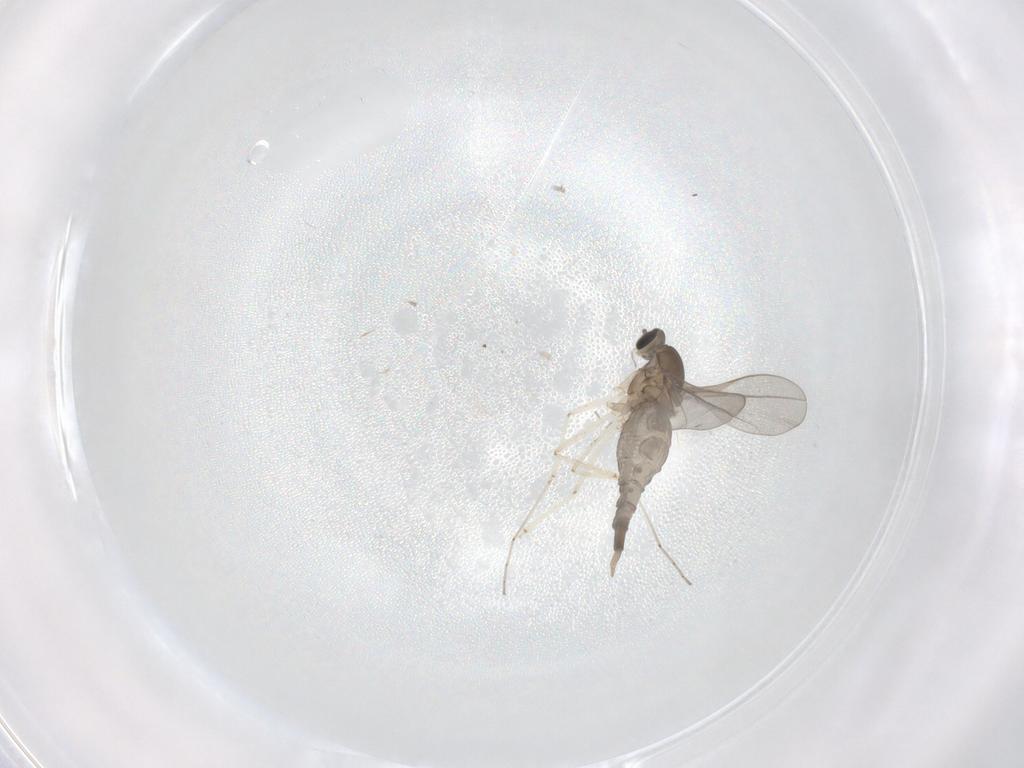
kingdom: Animalia
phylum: Arthropoda
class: Insecta
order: Diptera
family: Cecidomyiidae
